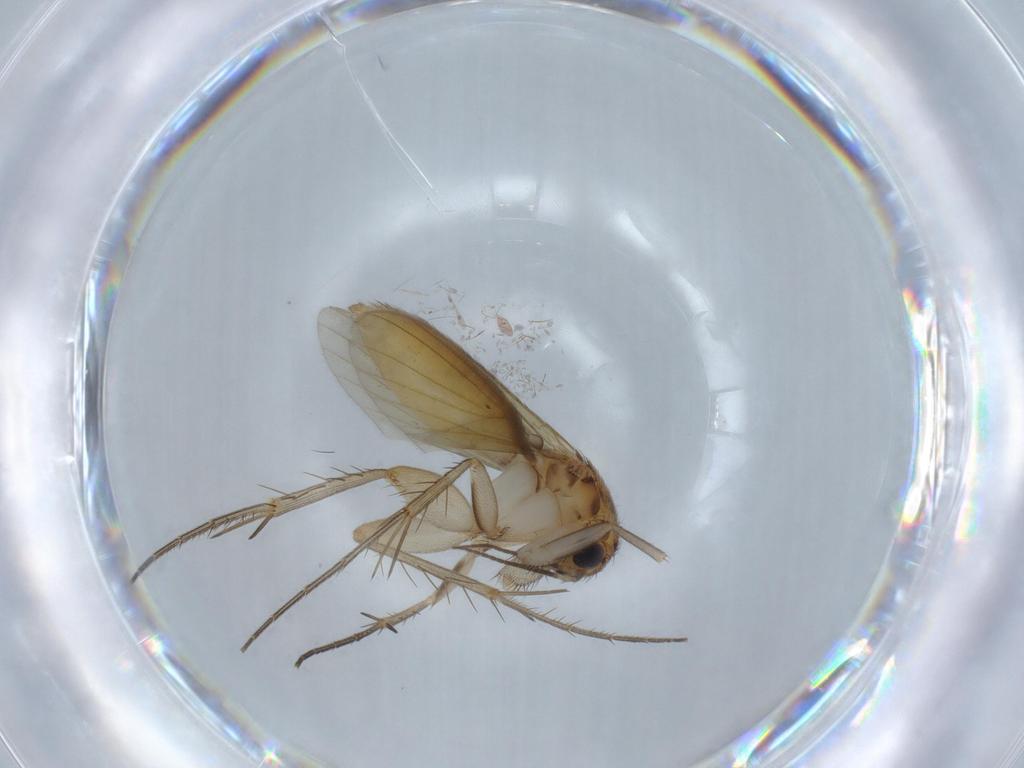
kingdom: Animalia
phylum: Arthropoda
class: Insecta
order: Diptera
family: Mycetophilidae
